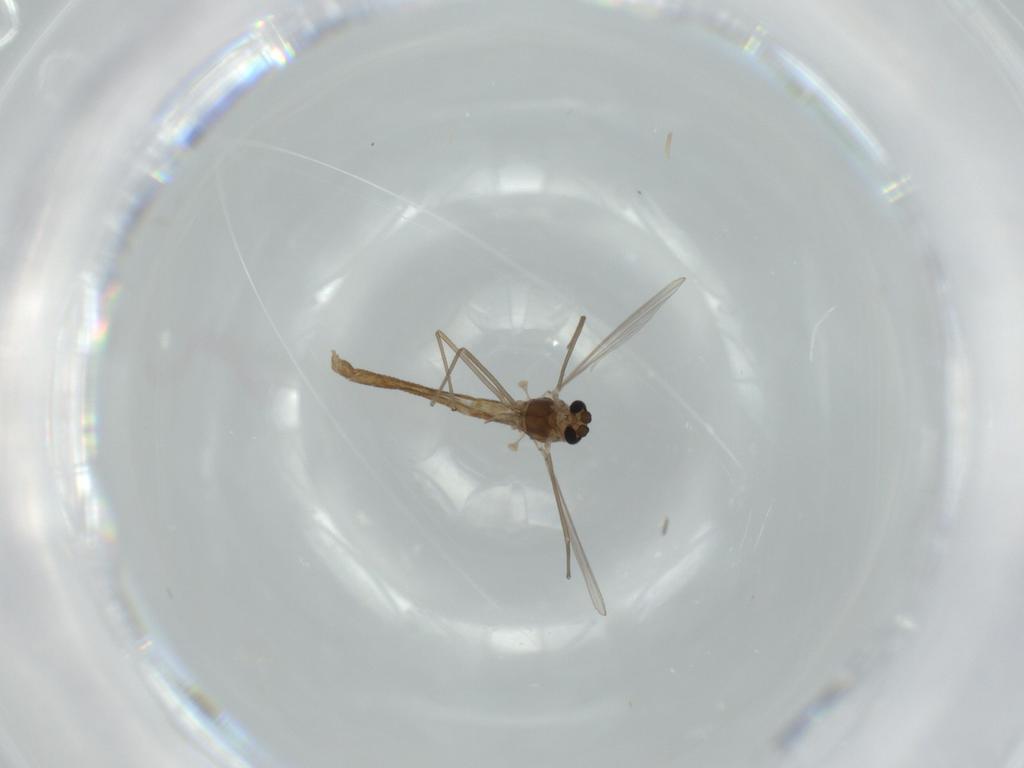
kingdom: Animalia
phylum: Arthropoda
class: Insecta
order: Diptera
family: Chironomidae
